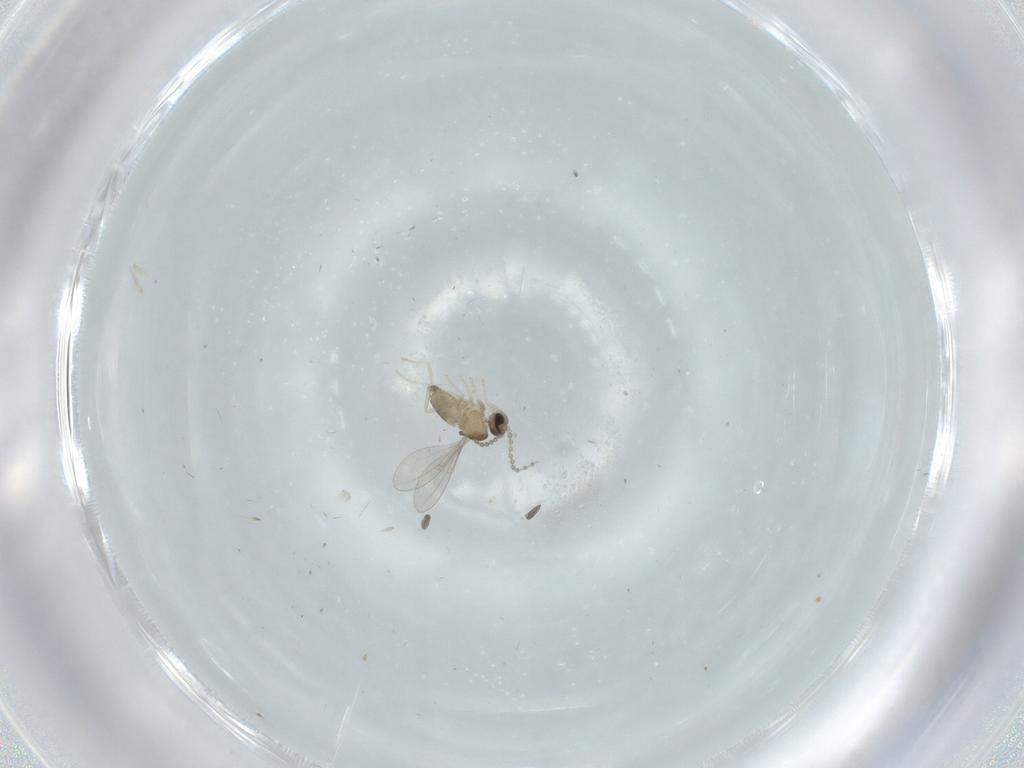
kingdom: Animalia
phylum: Arthropoda
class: Insecta
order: Diptera
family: Cecidomyiidae
